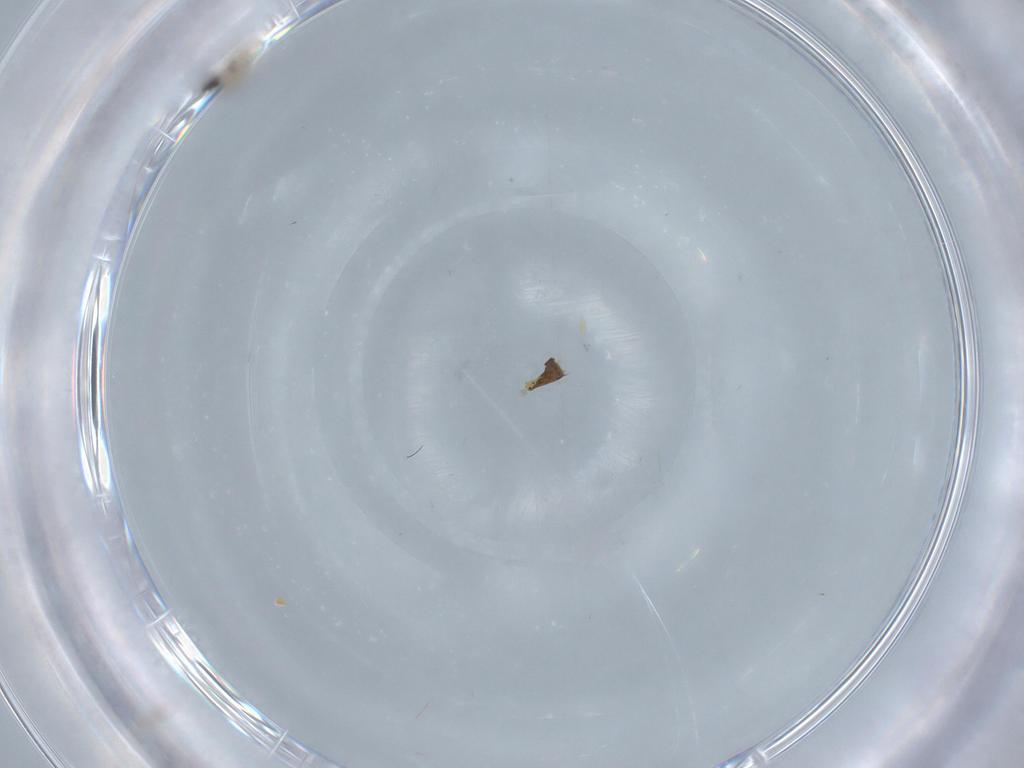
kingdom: Animalia
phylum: Arthropoda
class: Insecta
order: Diptera
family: Tachinidae
